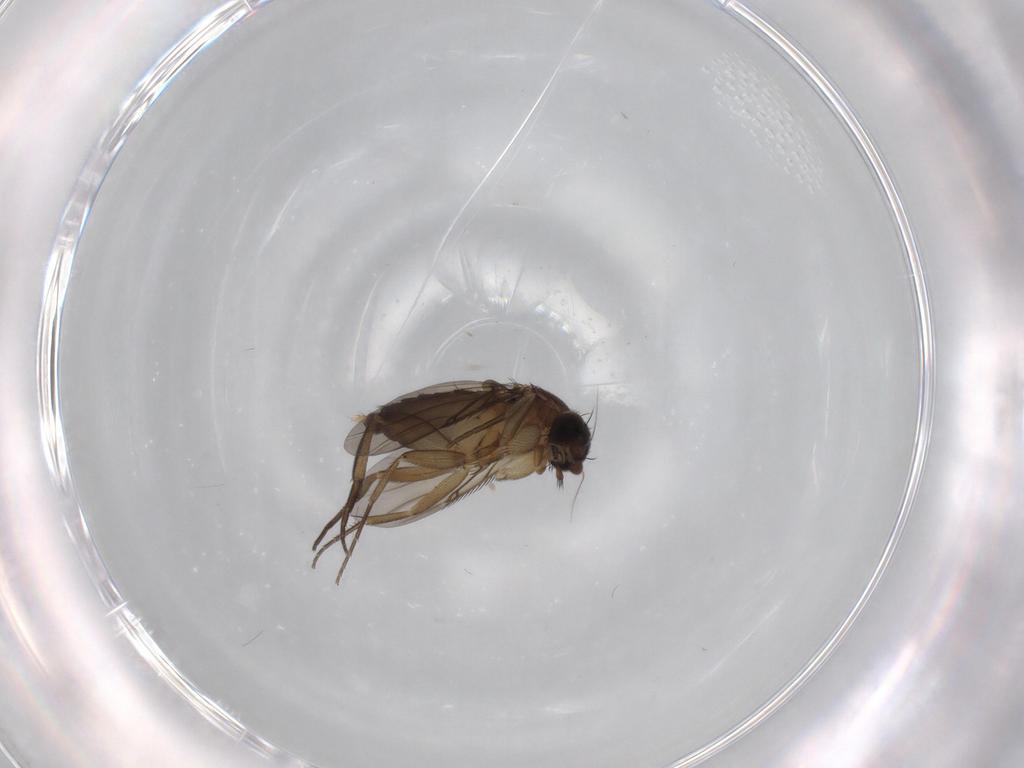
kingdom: Animalia
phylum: Arthropoda
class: Insecta
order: Diptera
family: Phoridae
